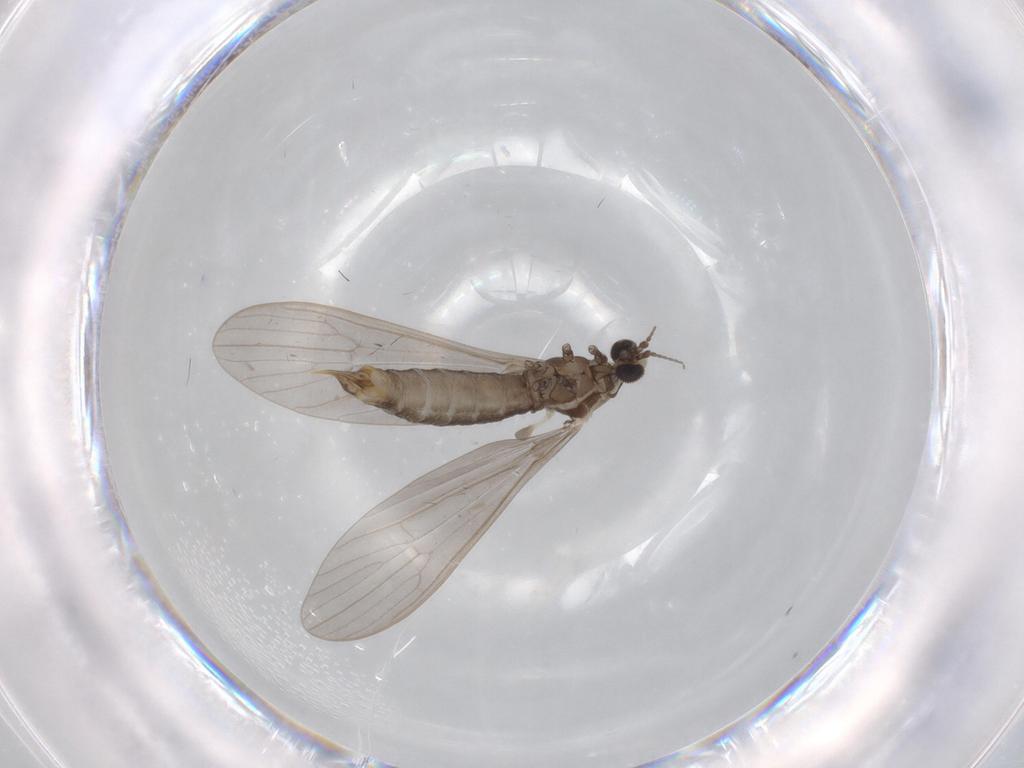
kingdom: Animalia
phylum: Arthropoda
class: Insecta
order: Diptera
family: Limoniidae
